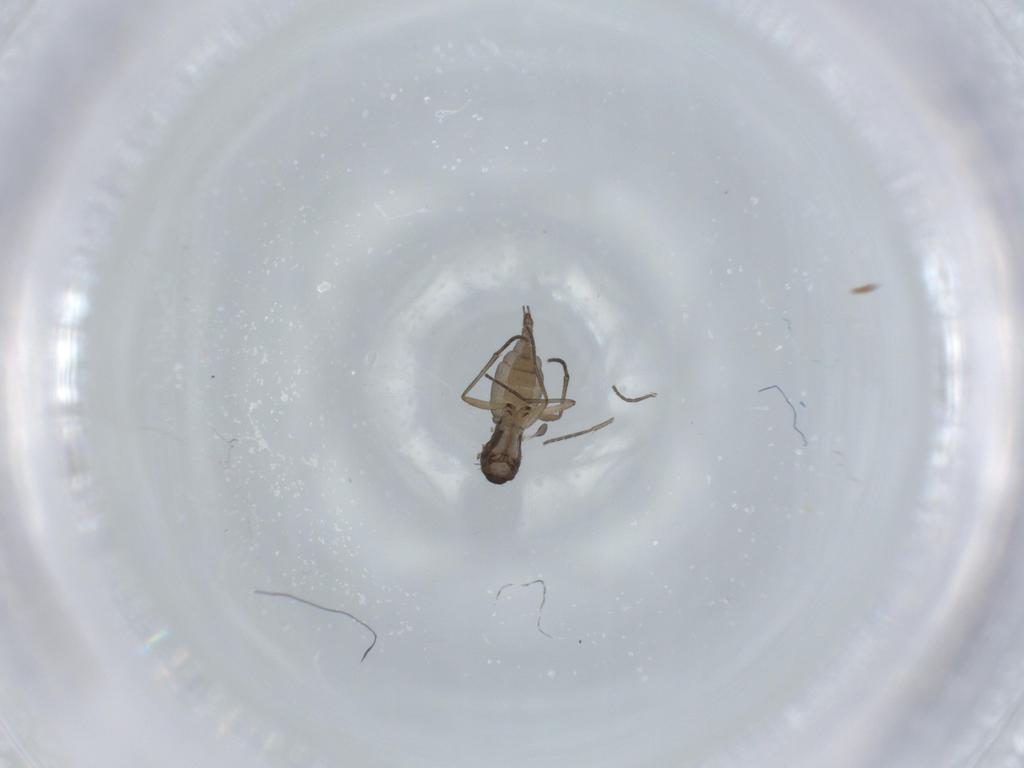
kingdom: Animalia
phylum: Arthropoda
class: Insecta
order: Diptera
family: Sciaridae
